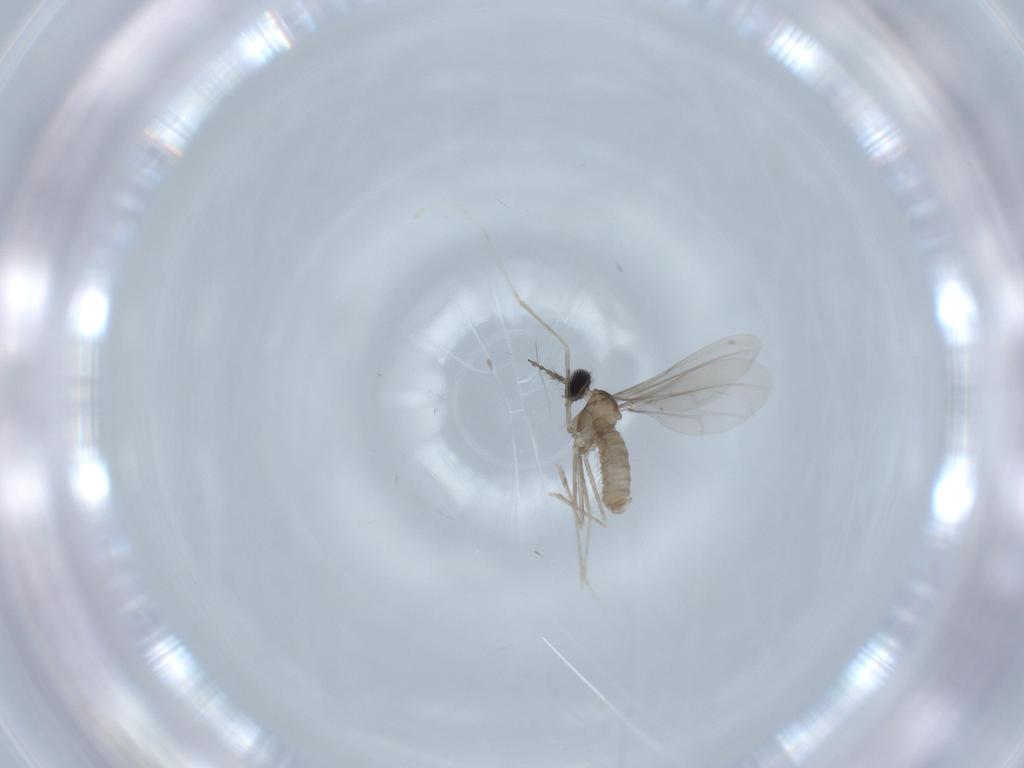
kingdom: Animalia
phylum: Arthropoda
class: Insecta
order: Diptera
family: Cecidomyiidae
